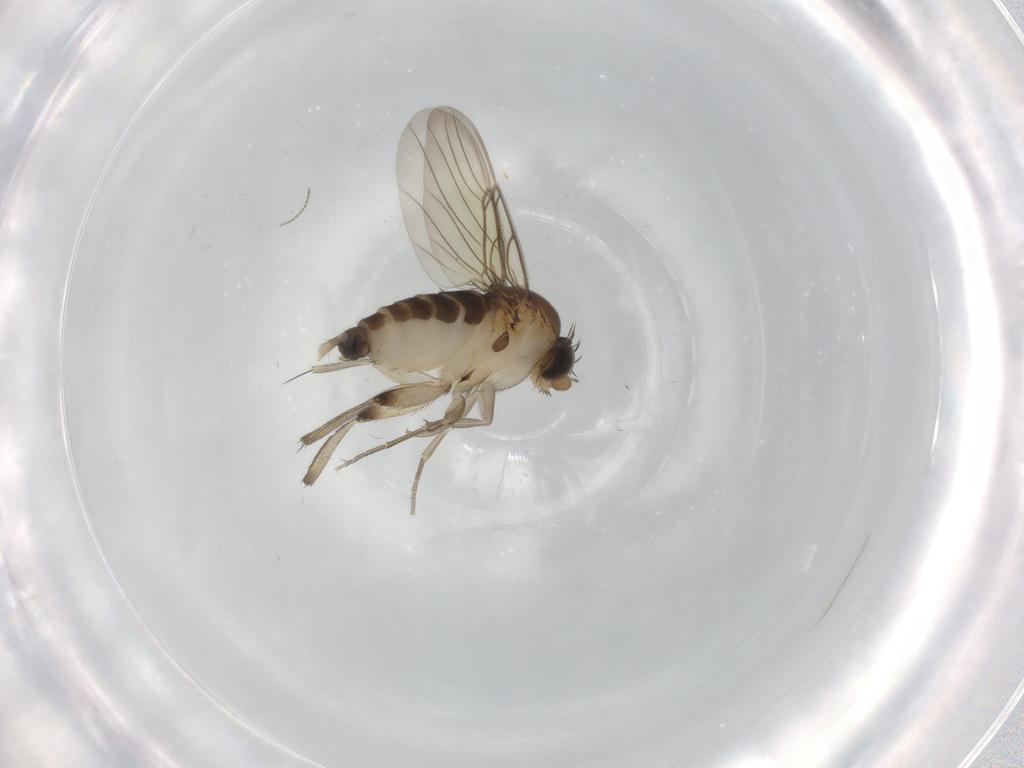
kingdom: Animalia
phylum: Arthropoda
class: Insecta
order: Diptera
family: Phoridae
